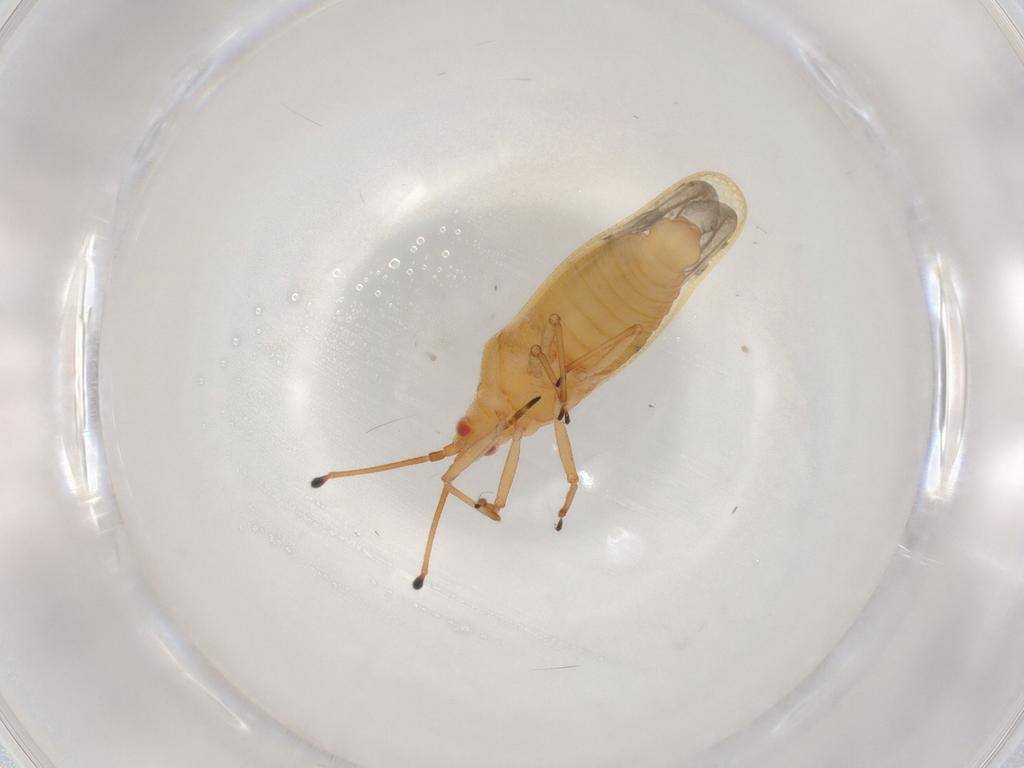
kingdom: Animalia
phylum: Arthropoda
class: Insecta
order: Hemiptera
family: Tingidae
